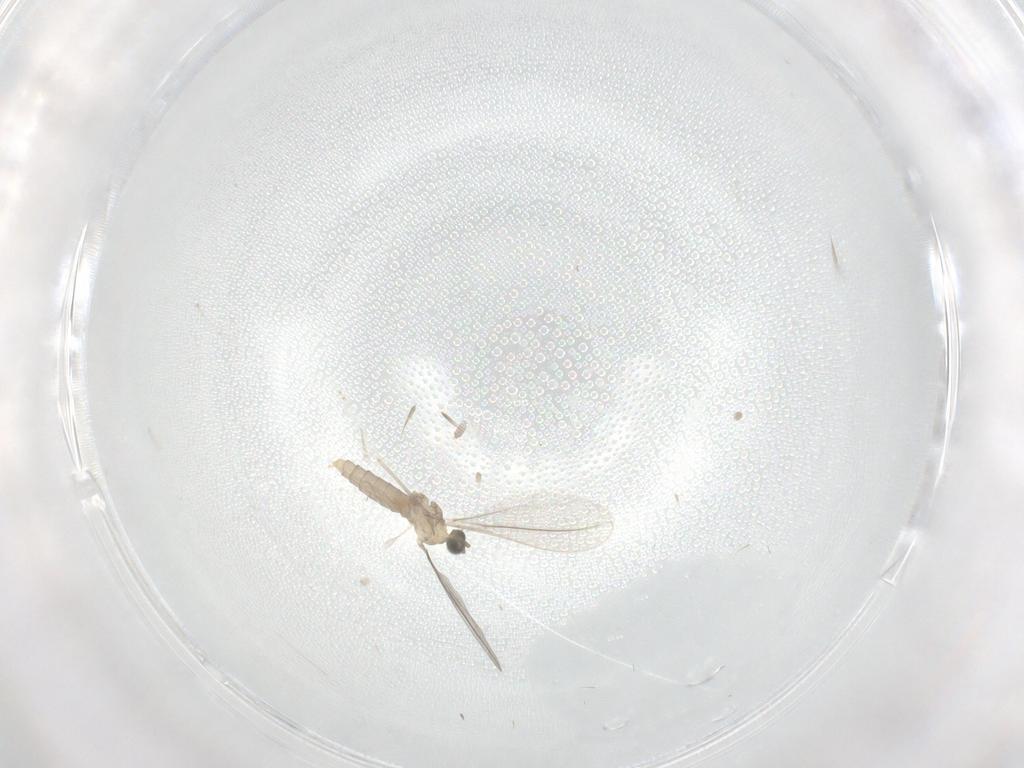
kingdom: Animalia
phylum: Arthropoda
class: Insecta
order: Diptera
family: Cecidomyiidae
